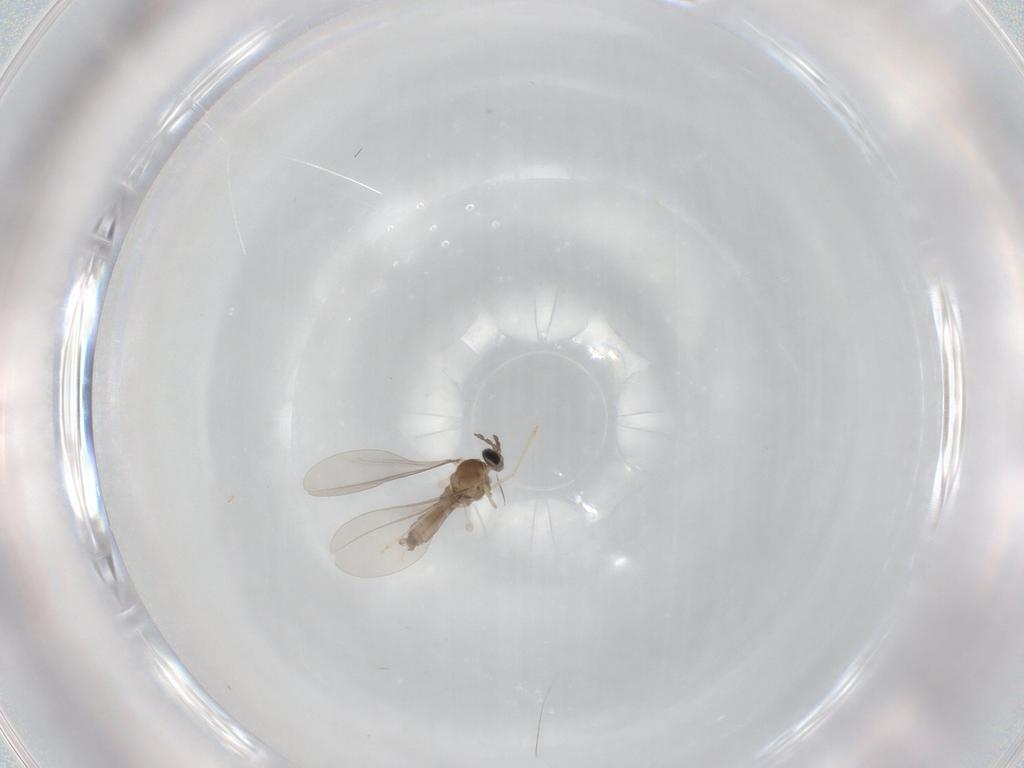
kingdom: Animalia
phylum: Arthropoda
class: Insecta
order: Diptera
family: Sphaeroceridae
